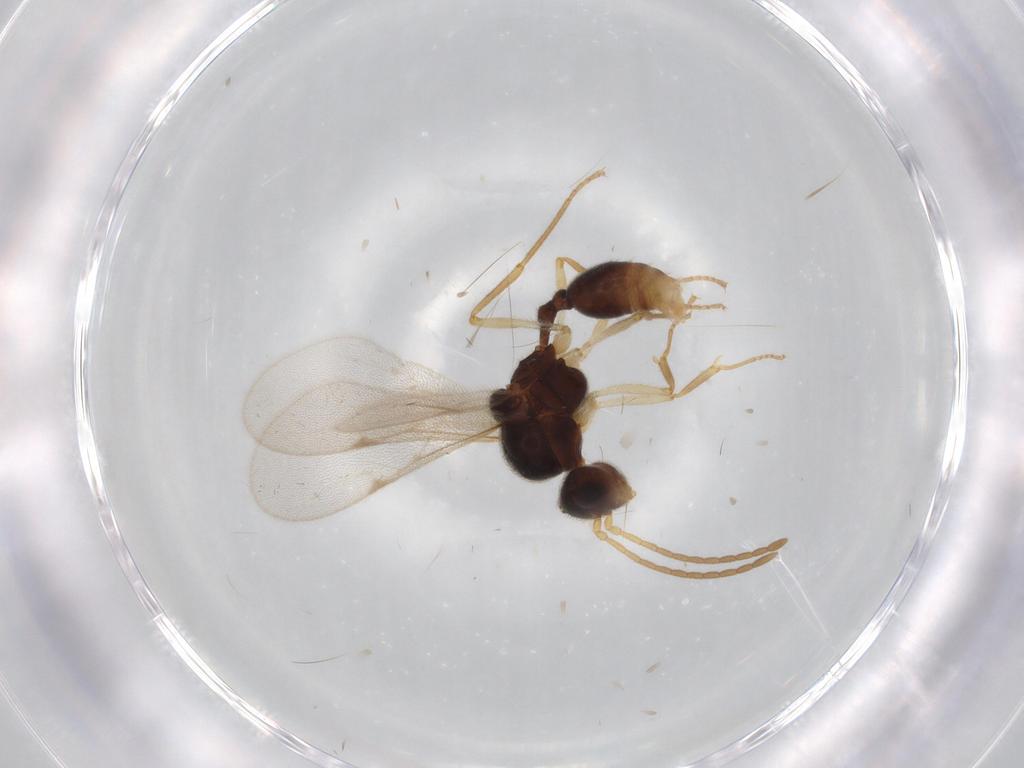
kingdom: Animalia
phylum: Arthropoda
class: Insecta
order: Hymenoptera
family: Formicidae
